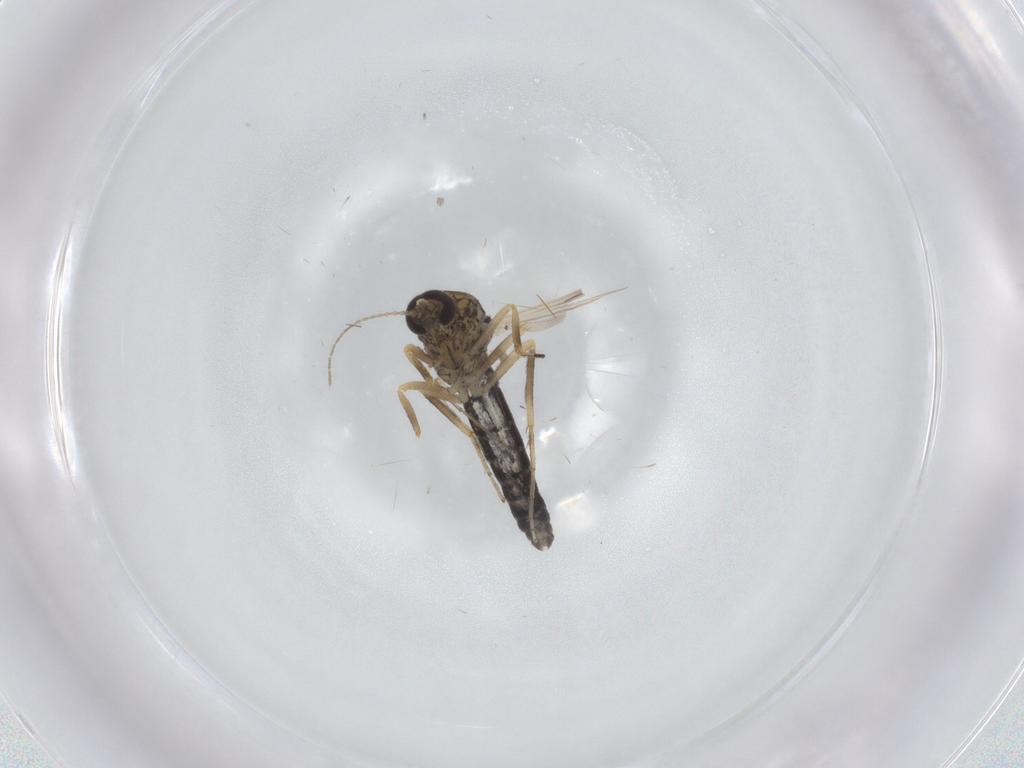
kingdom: Animalia
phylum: Arthropoda
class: Insecta
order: Diptera
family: Ceratopogonidae
